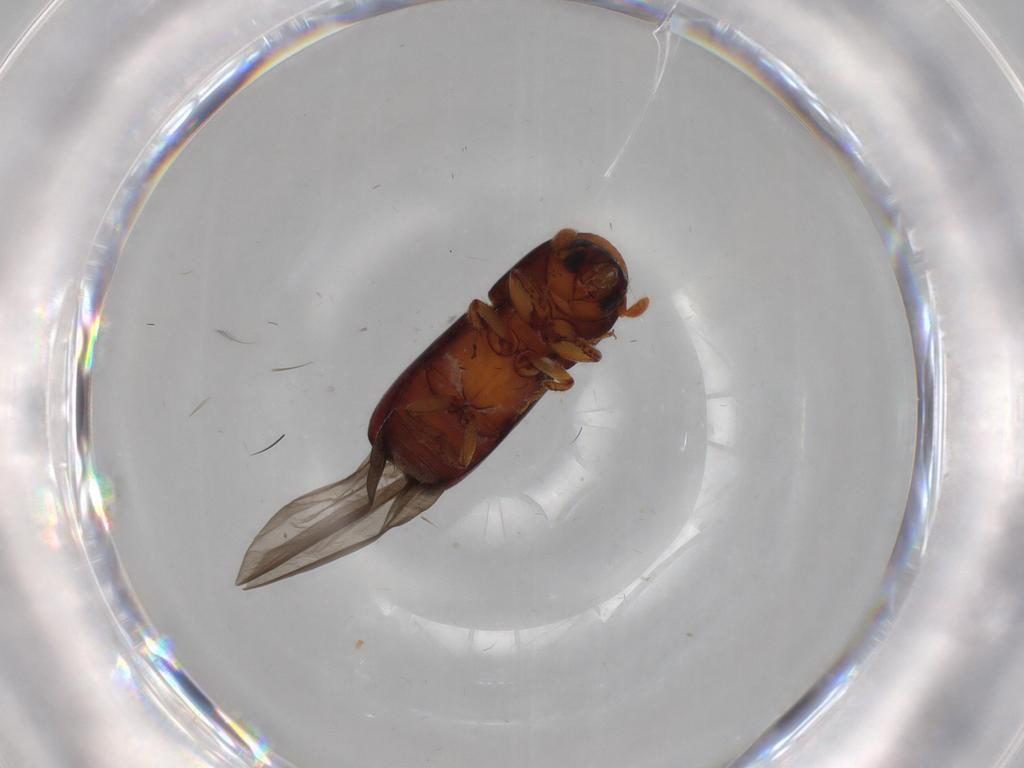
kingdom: Animalia
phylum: Arthropoda
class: Insecta
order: Coleoptera
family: Curculionidae
